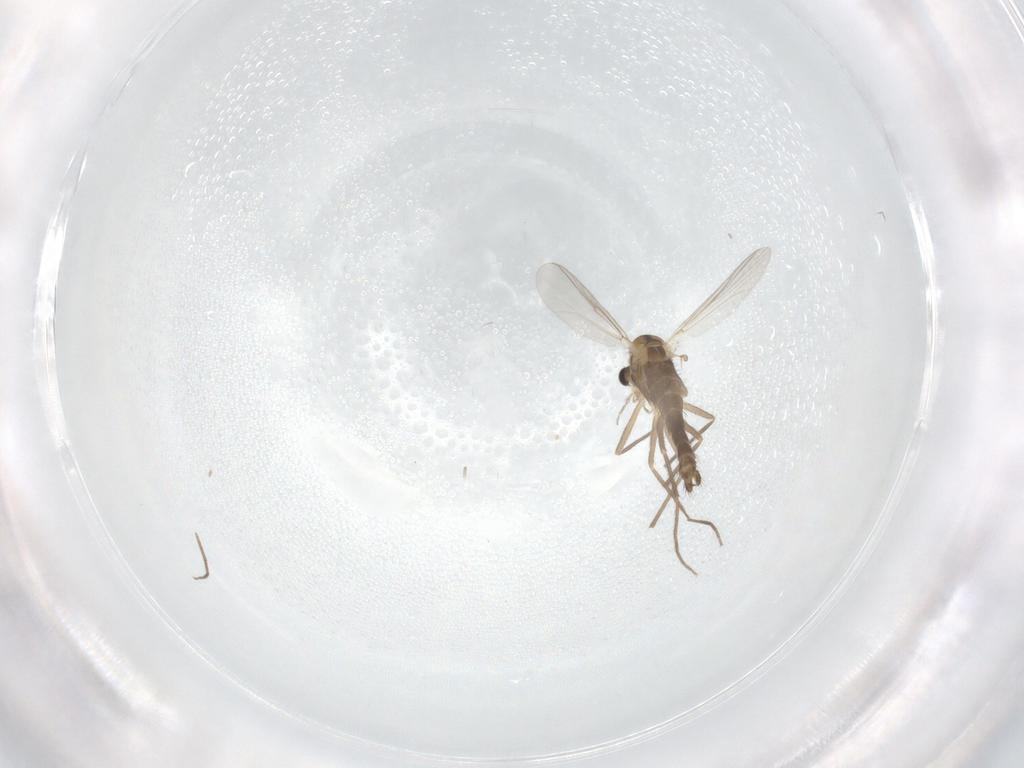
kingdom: Animalia
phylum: Arthropoda
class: Insecta
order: Diptera
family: Chironomidae
